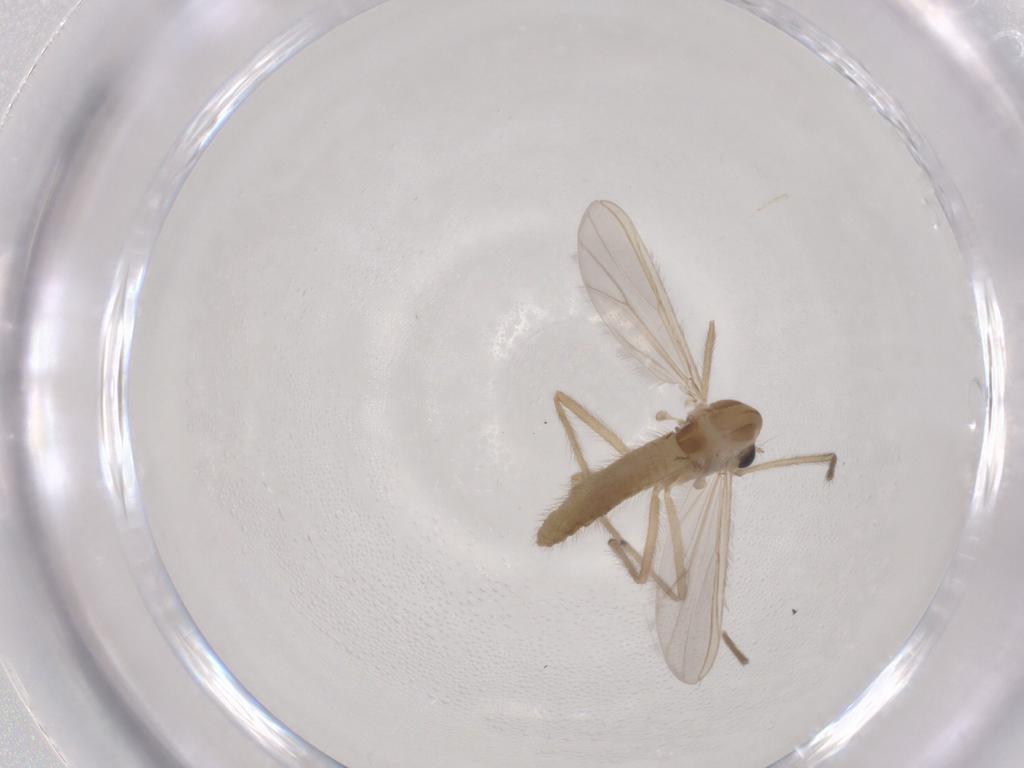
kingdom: Animalia
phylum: Arthropoda
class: Insecta
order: Diptera
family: Chironomidae
